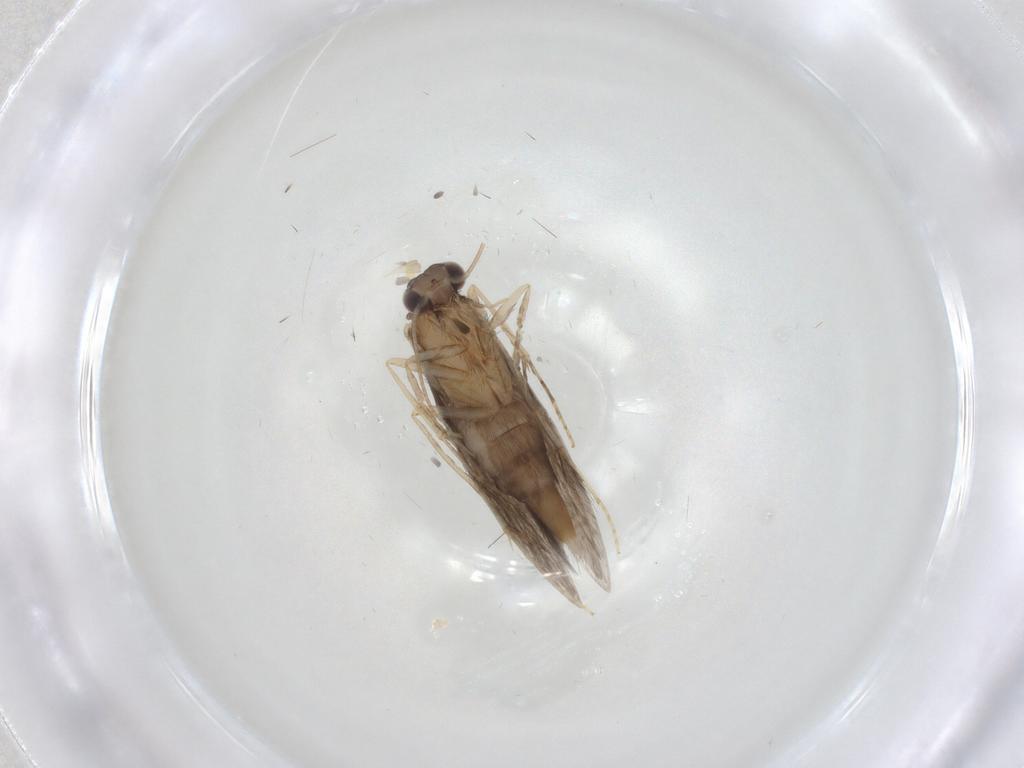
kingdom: Animalia
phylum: Arthropoda
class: Insecta
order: Trichoptera
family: Hydroptilidae
